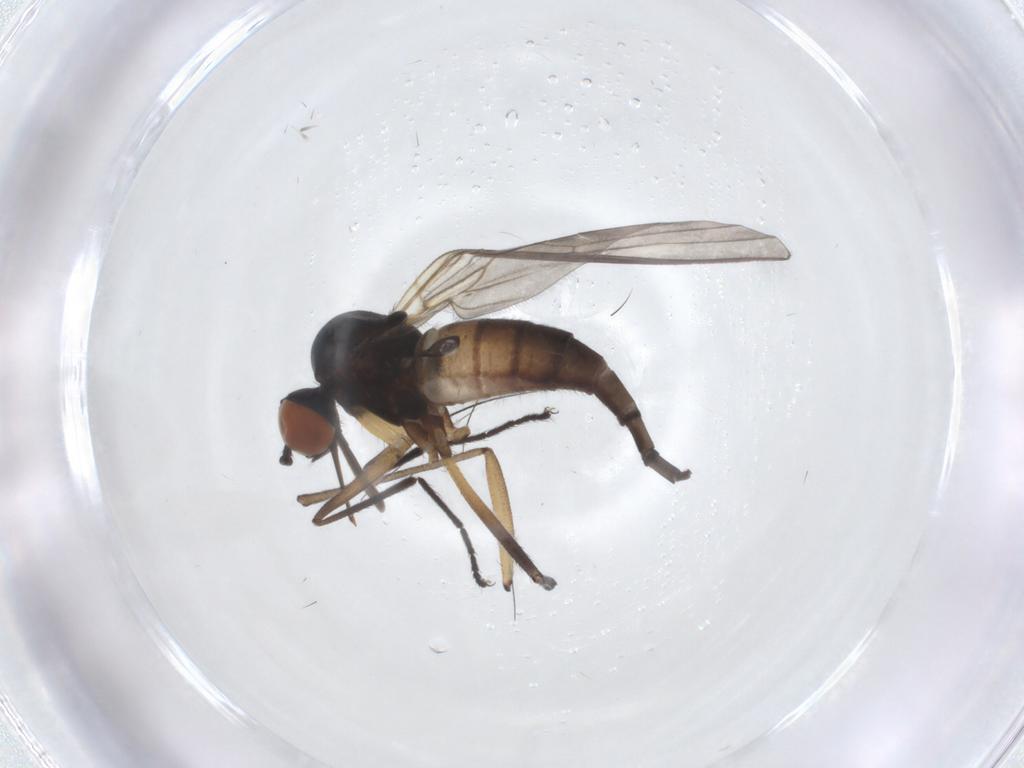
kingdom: Animalia
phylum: Arthropoda
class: Insecta
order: Diptera
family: Empididae
